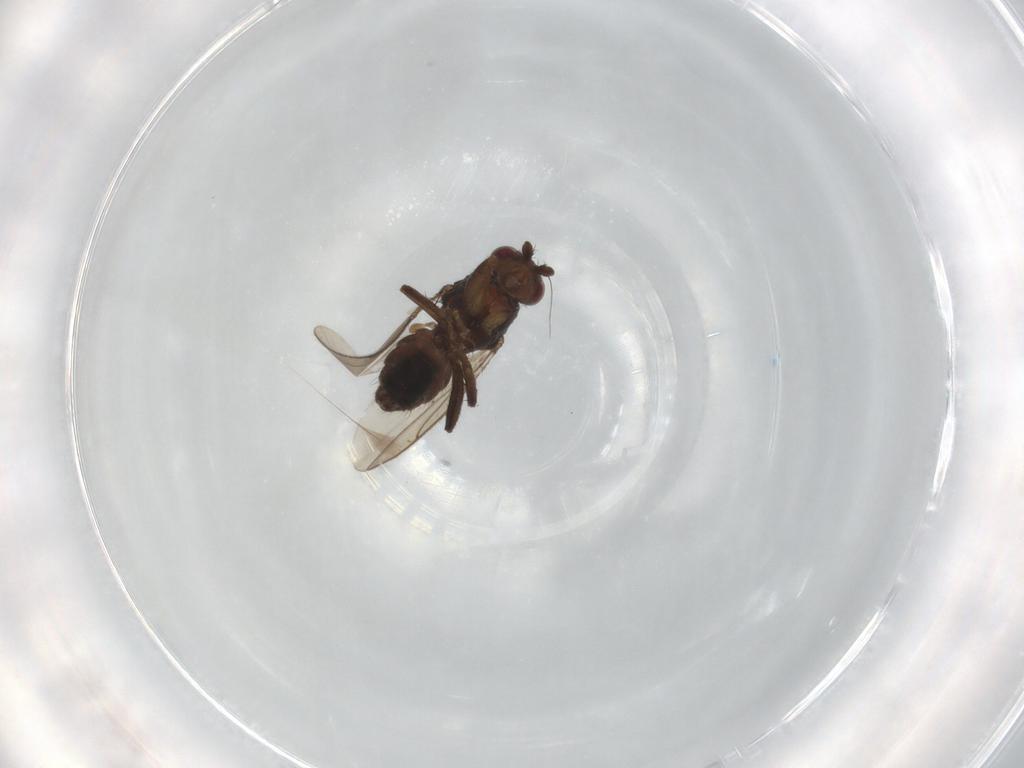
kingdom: Animalia
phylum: Arthropoda
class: Insecta
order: Diptera
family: Sphaeroceridae
